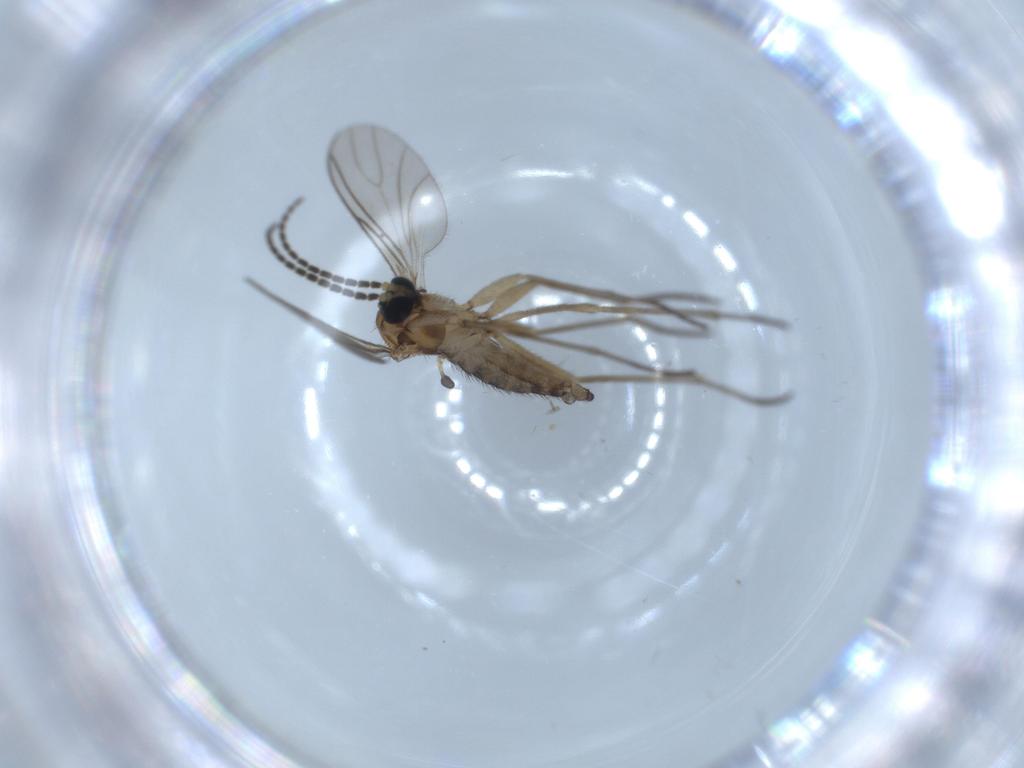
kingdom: Animalia
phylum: Arthropoda
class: Insecta
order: Diptera
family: Sciaridae
